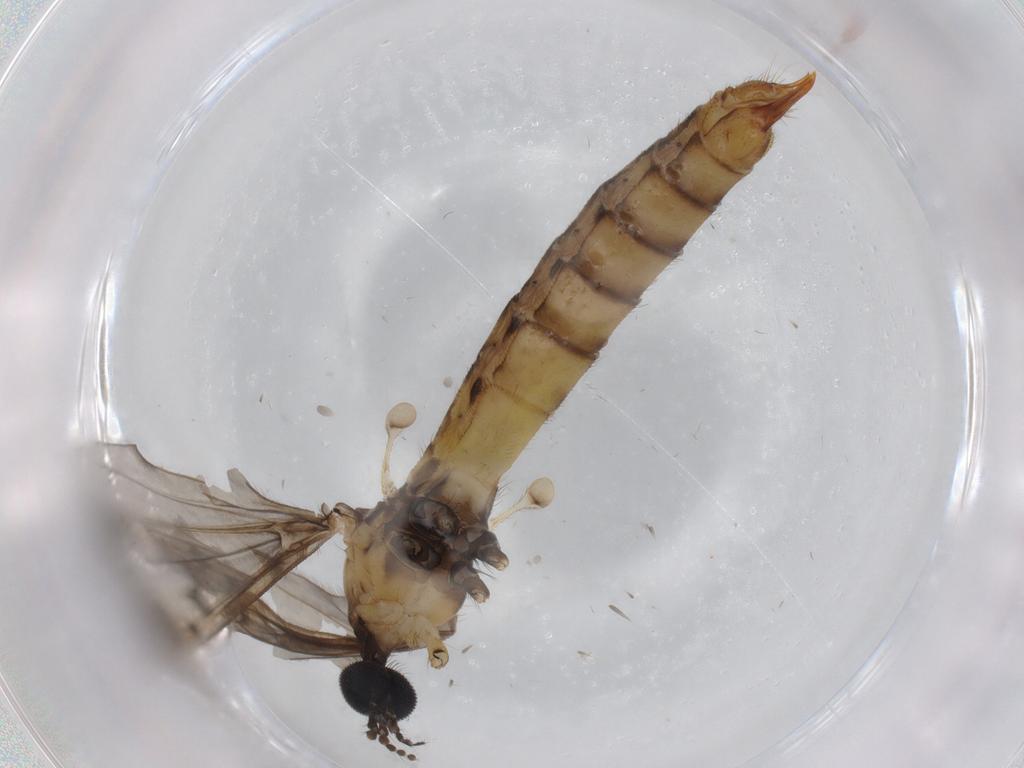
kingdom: Animalia
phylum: Arthropoda
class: Insecta
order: Diptera
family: Limoniidae
